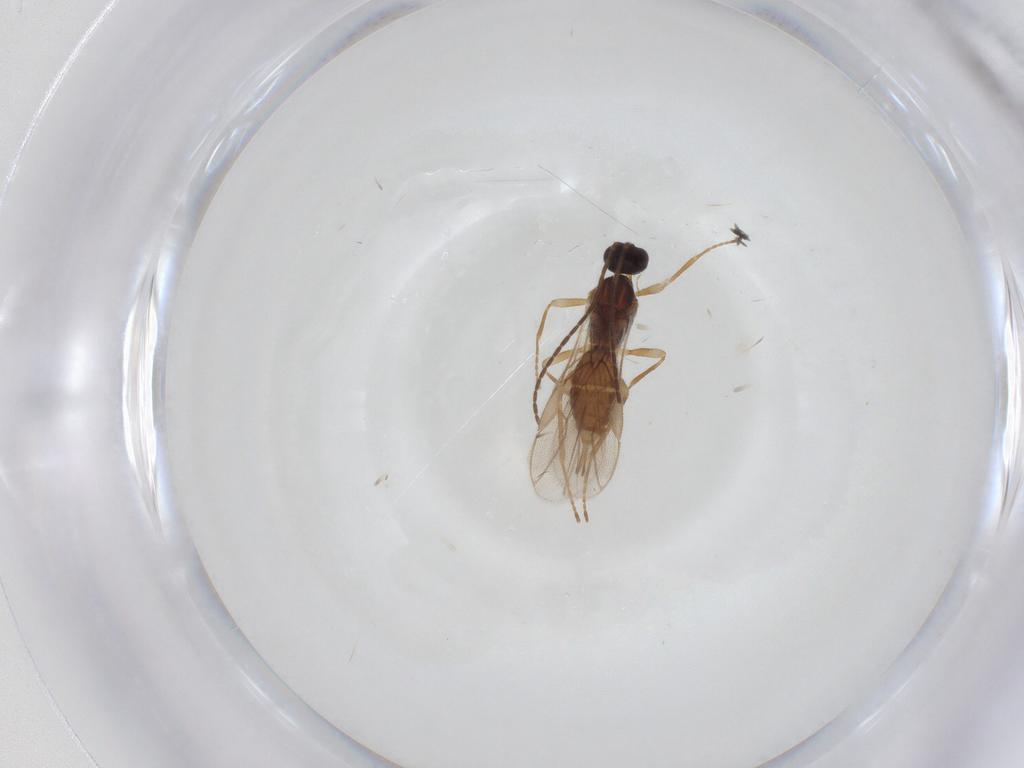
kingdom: Animalia
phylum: Arthropoda
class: Insecta
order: Hymenoptera
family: Braconidae
